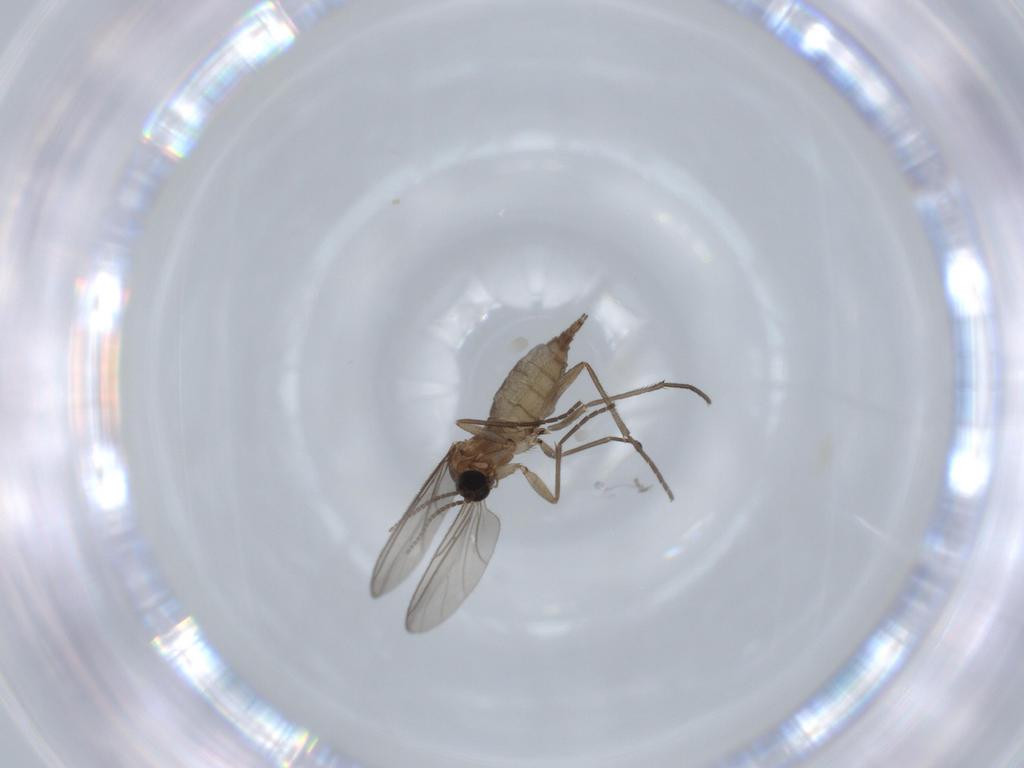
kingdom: Animalia
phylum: Arthropoda
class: Insecta
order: Diptera
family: Sciaridae
